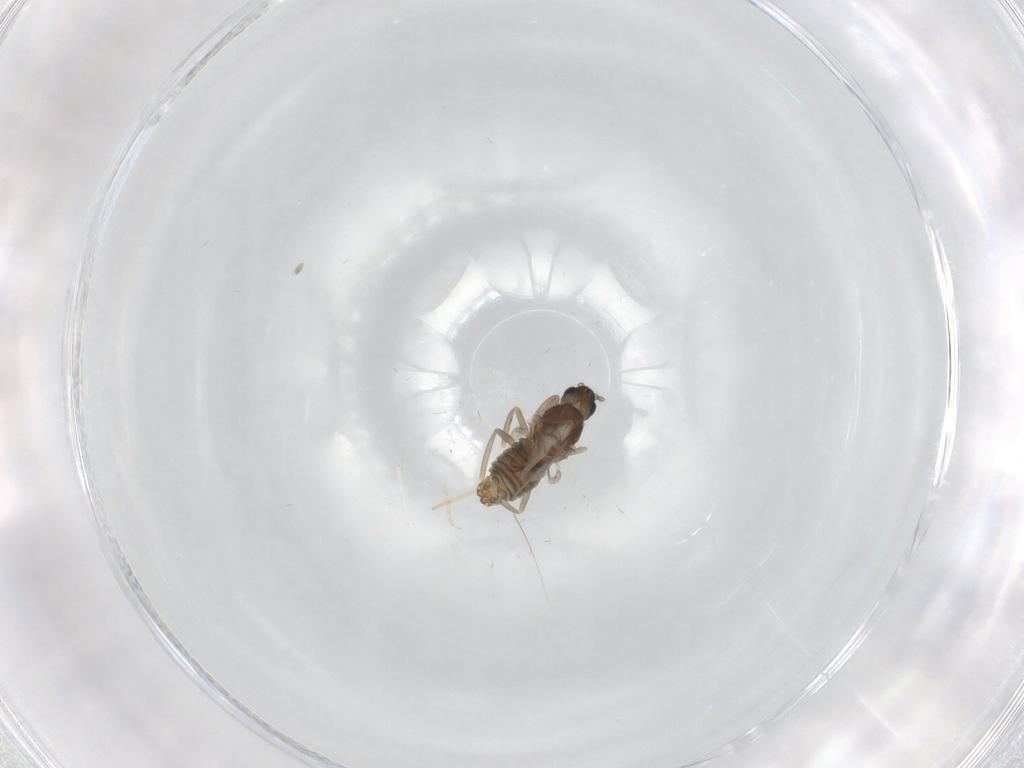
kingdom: Animalia
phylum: Arthropoda
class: Insecta
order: Diptera
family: Cecidomyiidae
